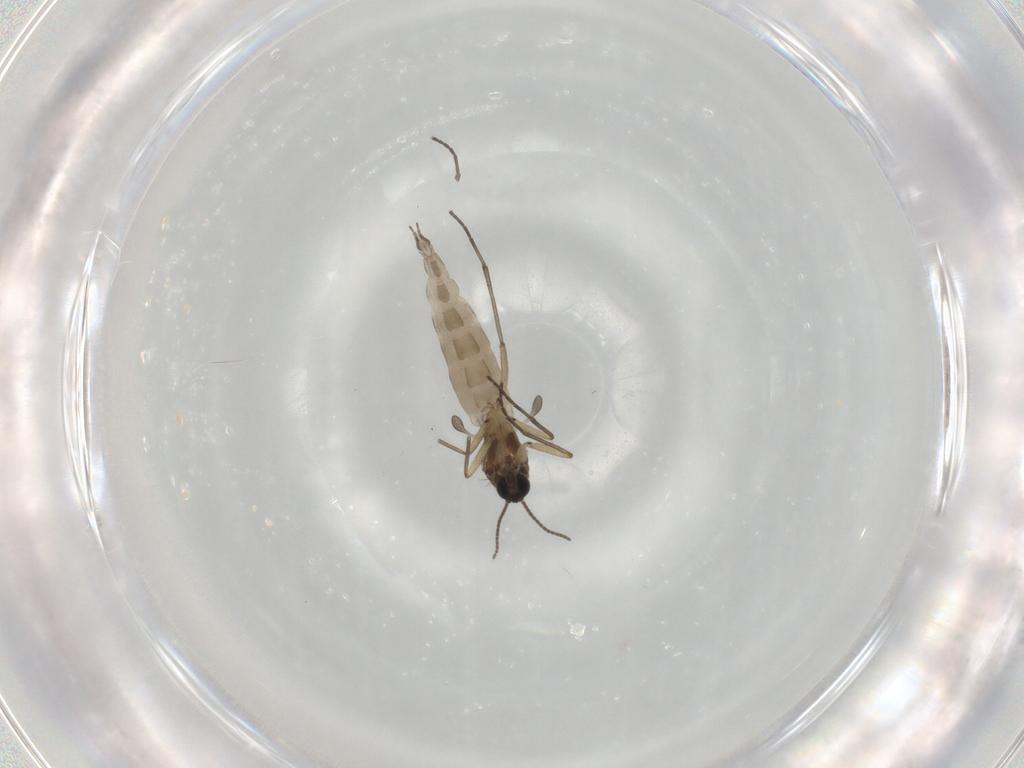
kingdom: Animalia
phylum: Arthropoda
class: Insecta
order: Diptera
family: Sciaridae
